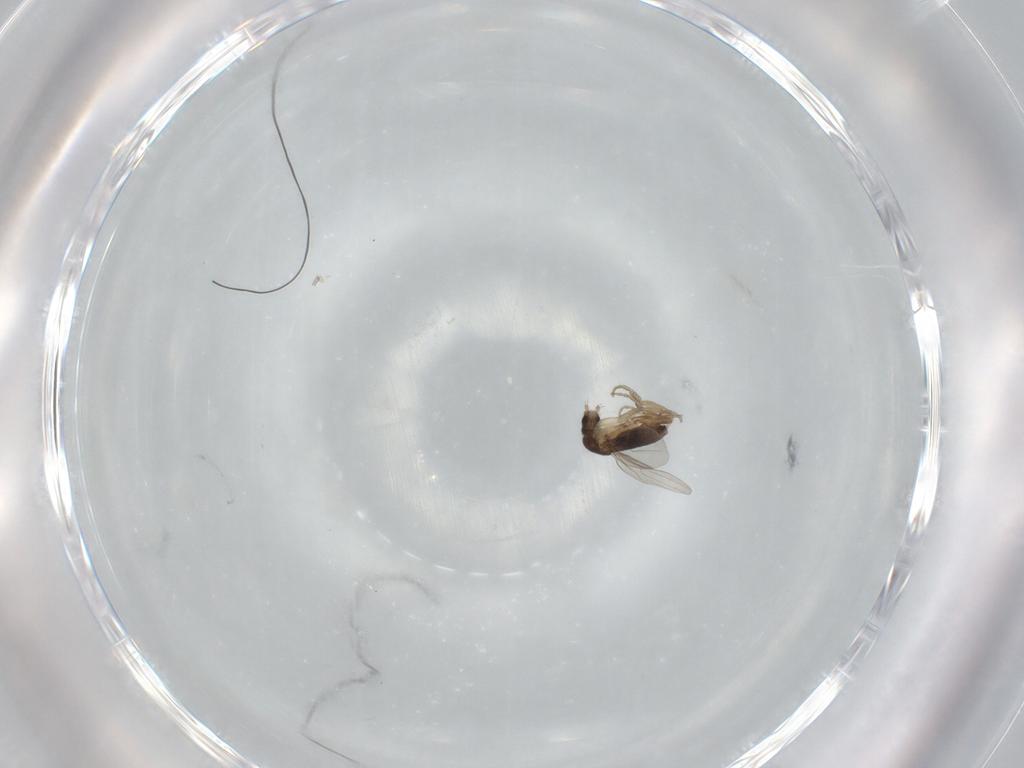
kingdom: Animalia
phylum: Arthropoda
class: Insecta
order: Diptera
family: Phoridae
